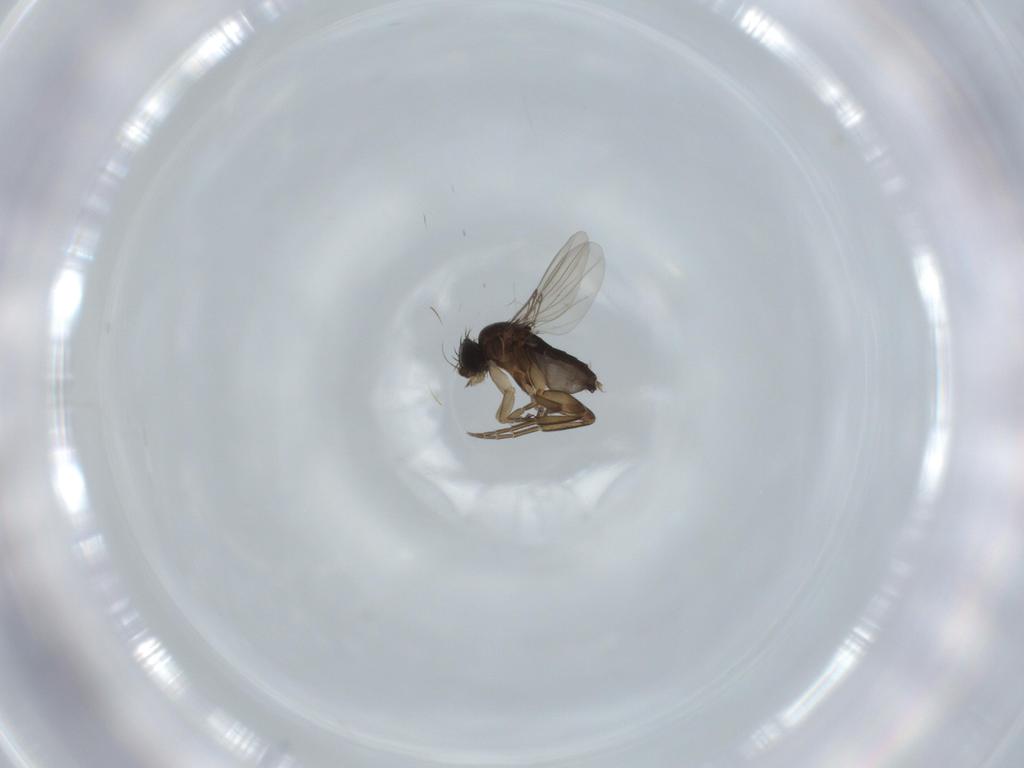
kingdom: Animalia
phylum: Arthropoda
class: Insecta
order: Diptera
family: Phoridae
